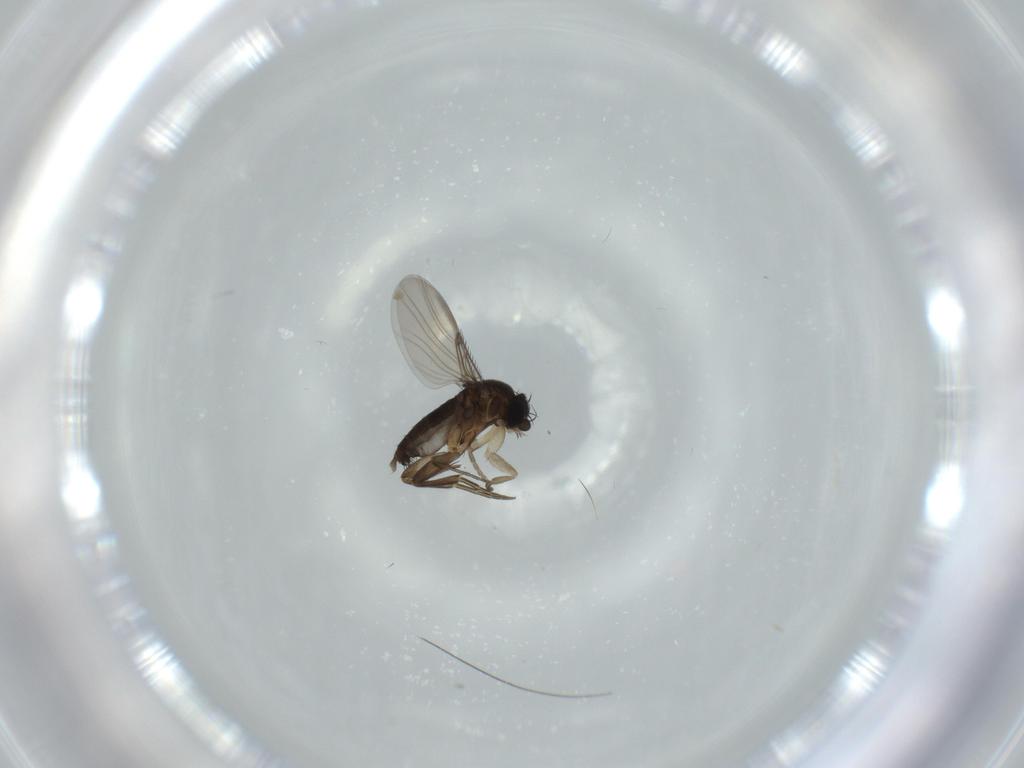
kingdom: Animalia
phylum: Arthropoda
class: Insecta
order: Diptera
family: Phoridae
